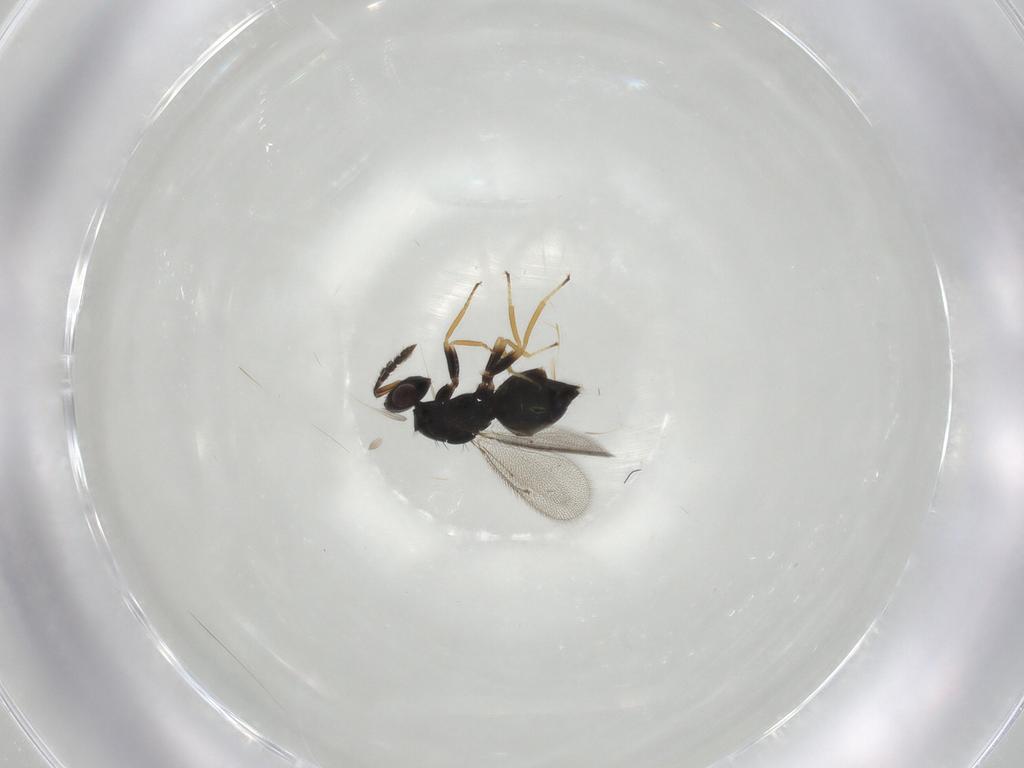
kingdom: Animalia
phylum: Arthropoda
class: Insecta
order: Hymenoptera
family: Eulophidae
